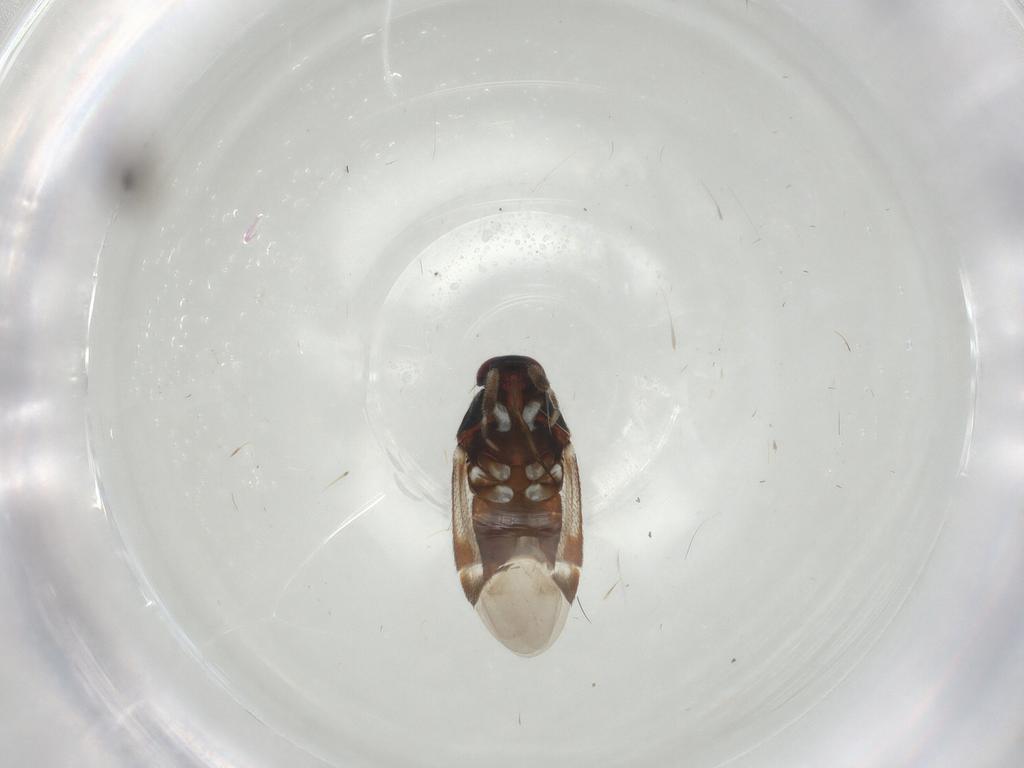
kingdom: Animalia
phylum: Arthropoda
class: Insecta
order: Hemiptera
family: Miridae
